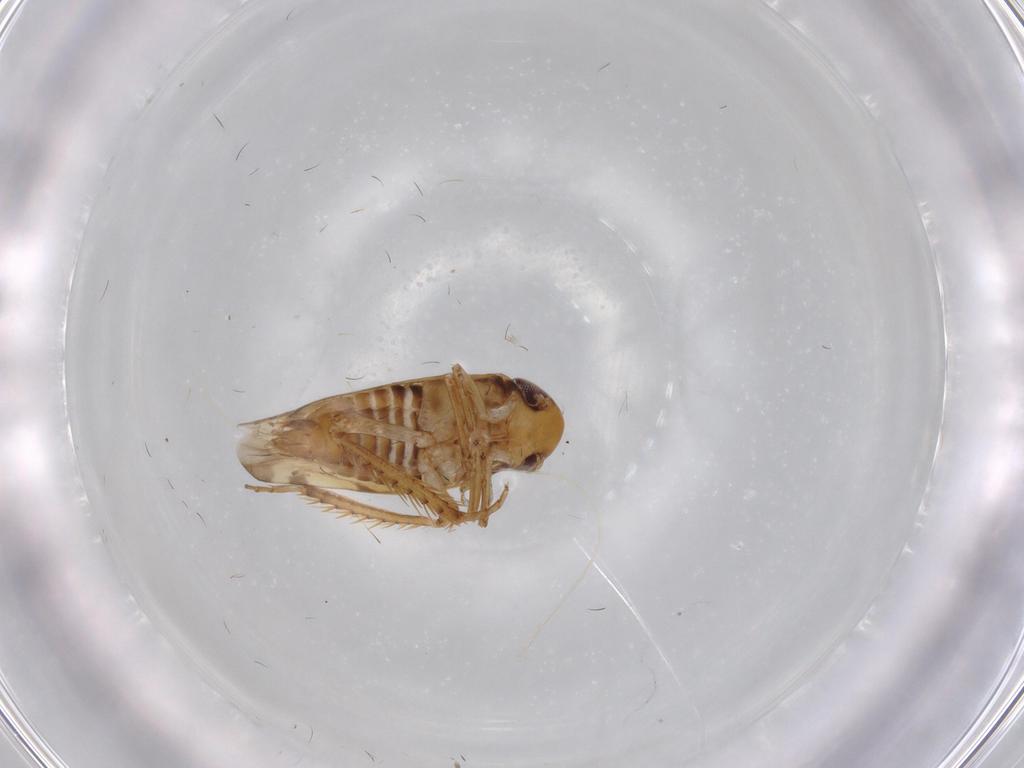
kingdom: Animalia
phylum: Arthropoda
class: Insecta
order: Hemiptera
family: Cicadellidae
